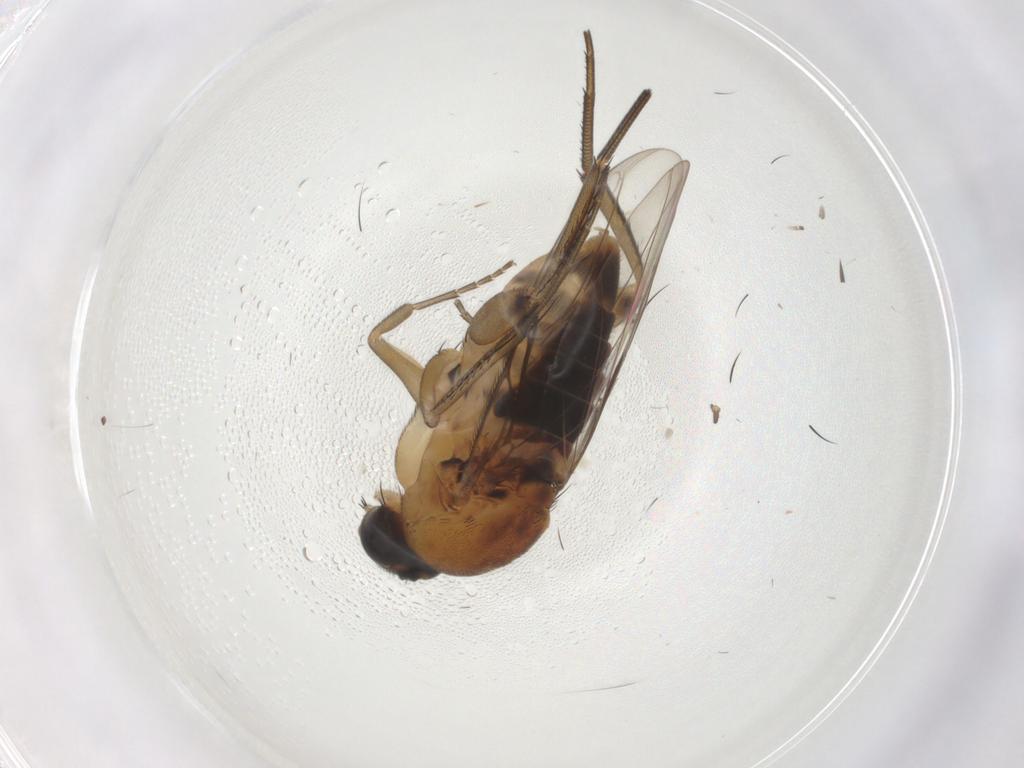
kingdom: Animalia
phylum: Arthropoda
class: Insecta
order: Diptera
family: Phoridae
